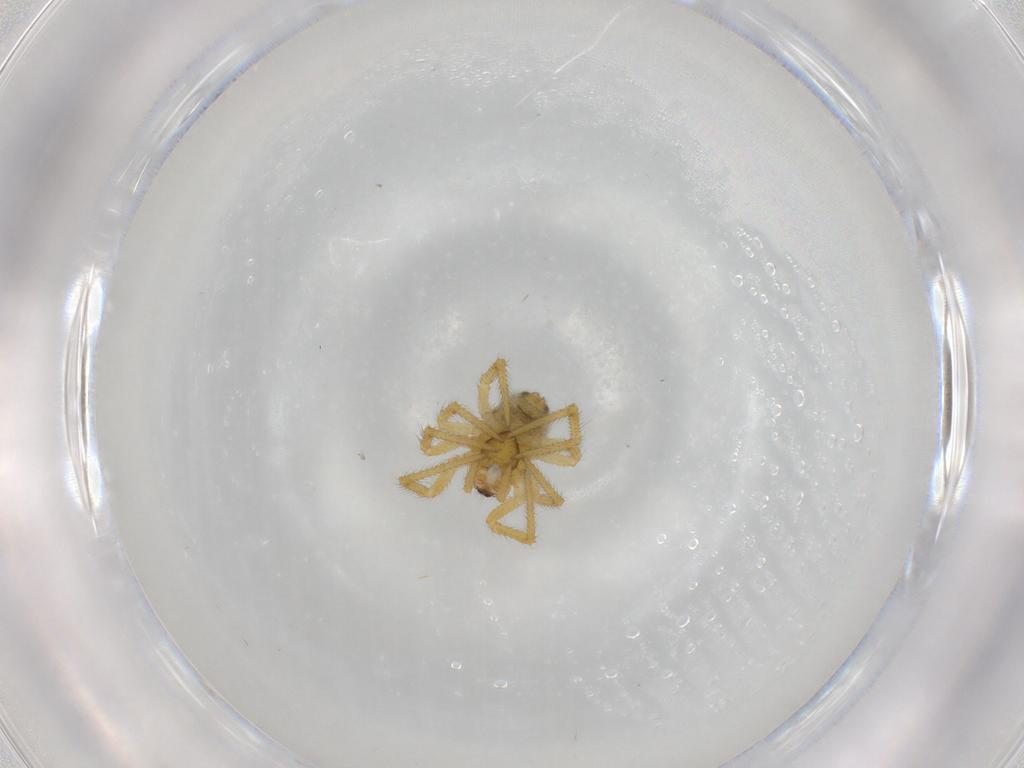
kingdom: Animalia
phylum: Arthropoda
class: Arachnida
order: Araneae
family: Theridiidae
